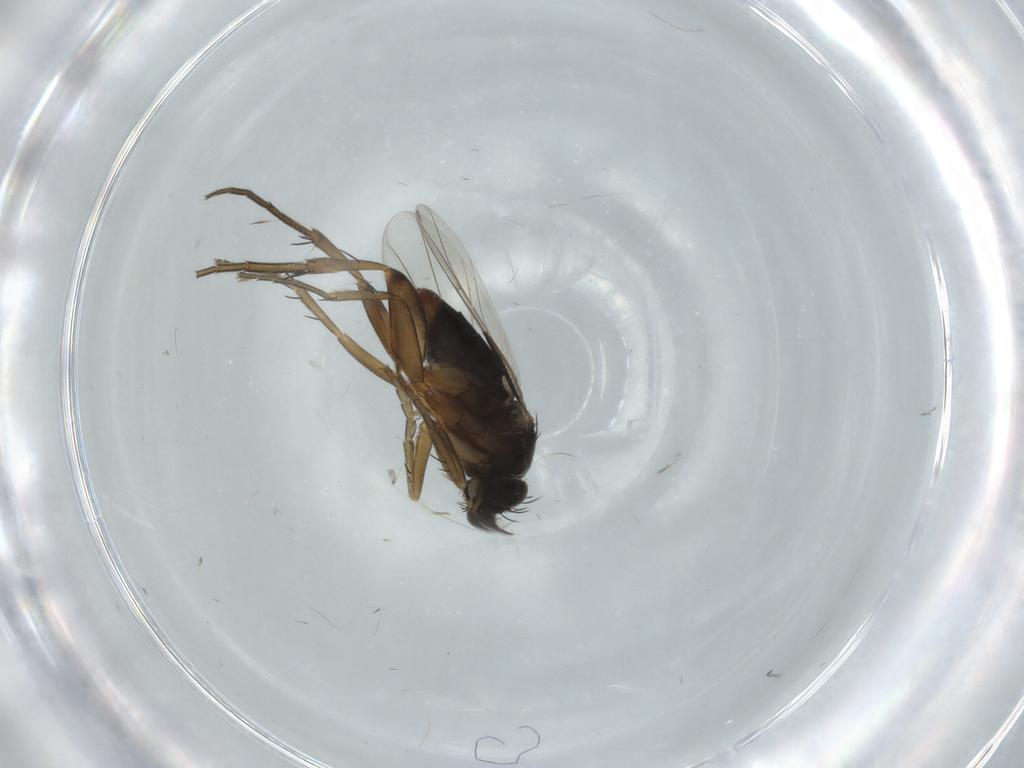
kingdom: Animalia
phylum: Arthropoda
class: Insecta
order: Diptera
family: Phoridae
